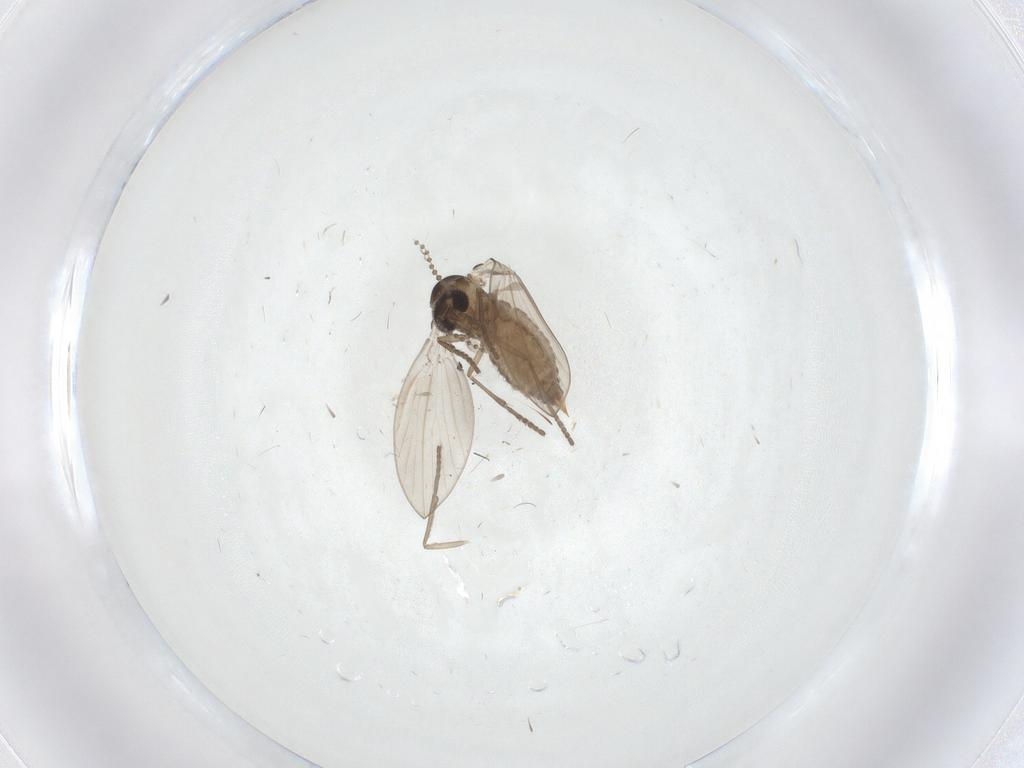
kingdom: Animalia
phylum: Arthropoda
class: Insecta
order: Diptera
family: Chironomidae
